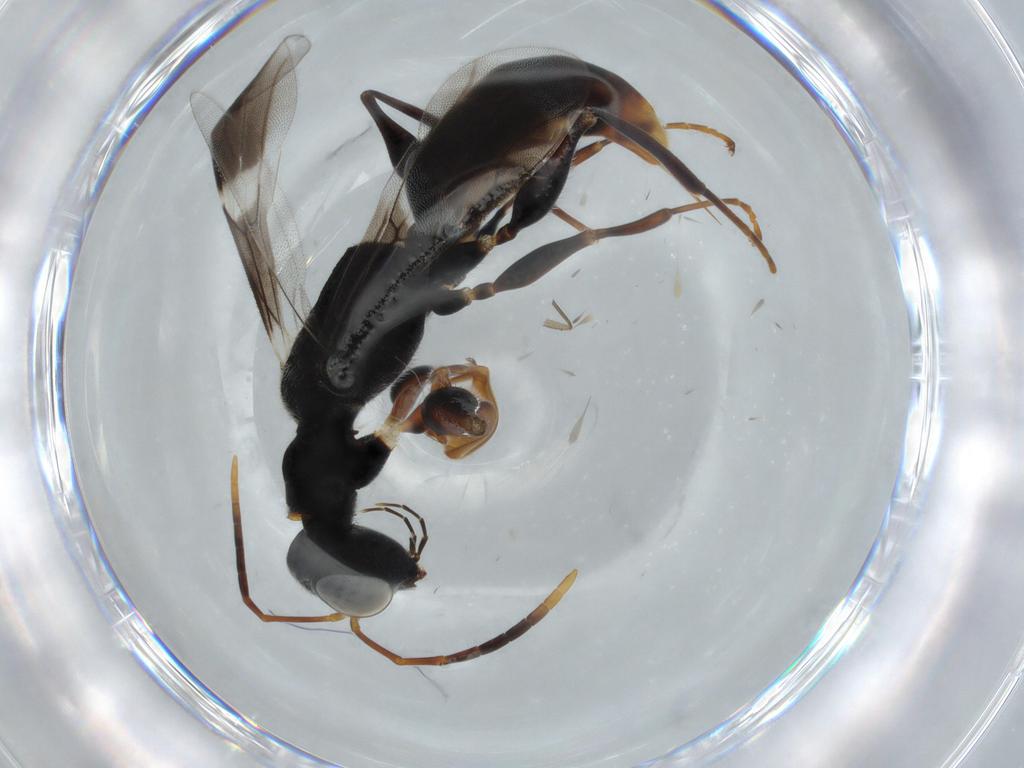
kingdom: Animalia
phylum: Arthropoda
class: Insecta
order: Hymenoptera
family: Dryinidae
